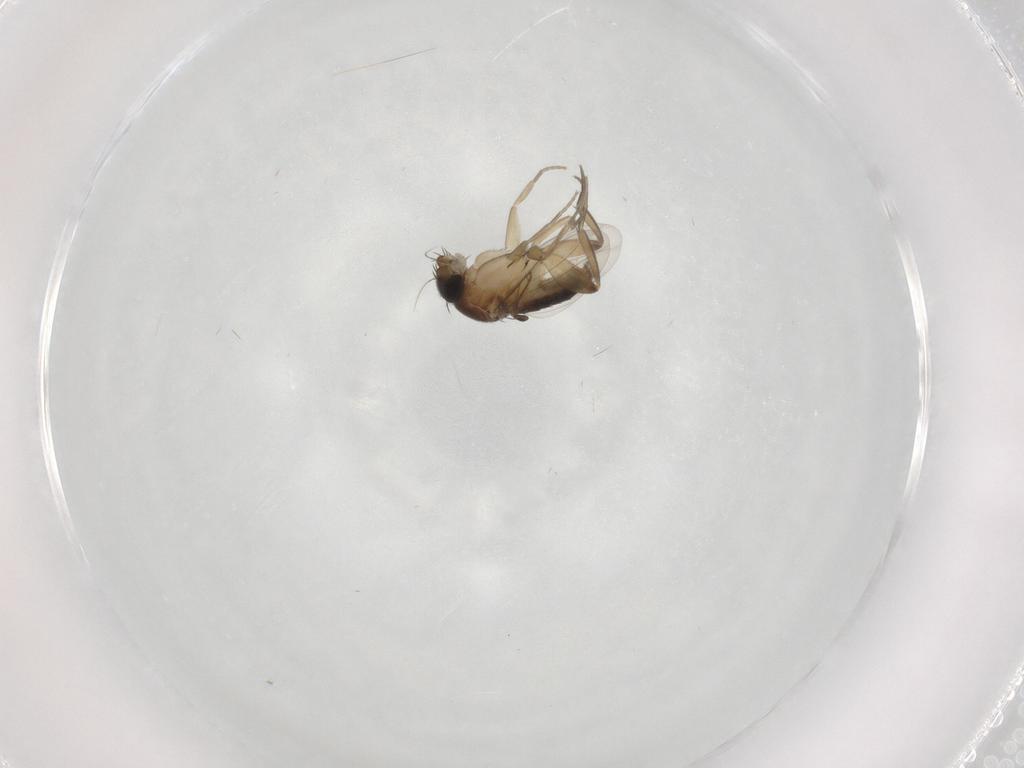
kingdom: Animalia
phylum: Arthropoda
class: Insecta
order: Diptera
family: Phoridae
